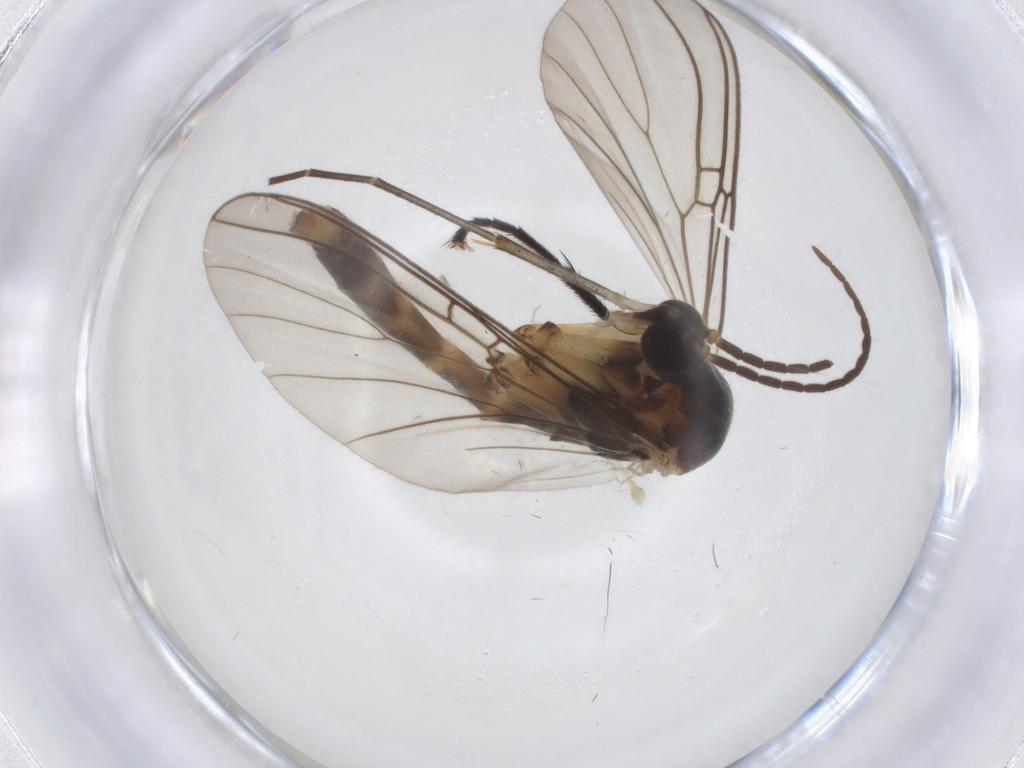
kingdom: Animalia
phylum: Arthropoda
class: Insecta
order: Diptera
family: Mycetophilidae
